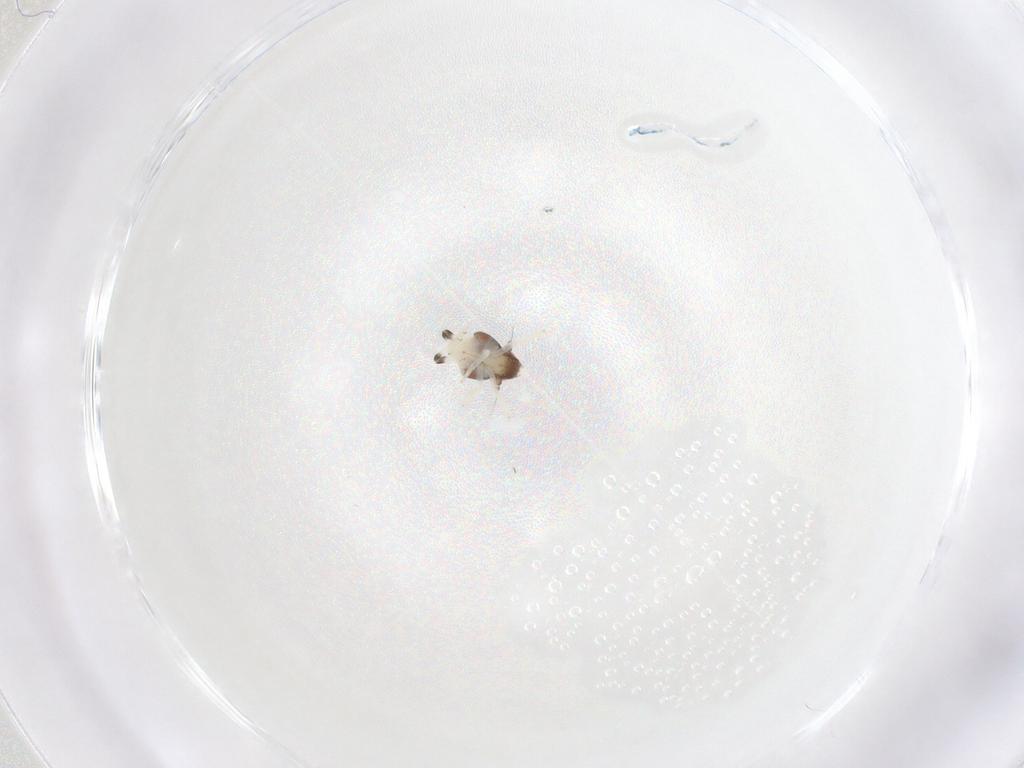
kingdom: Animalia
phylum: Arthropoda
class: Insecta
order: Hemiptera
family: Nogodinidae
